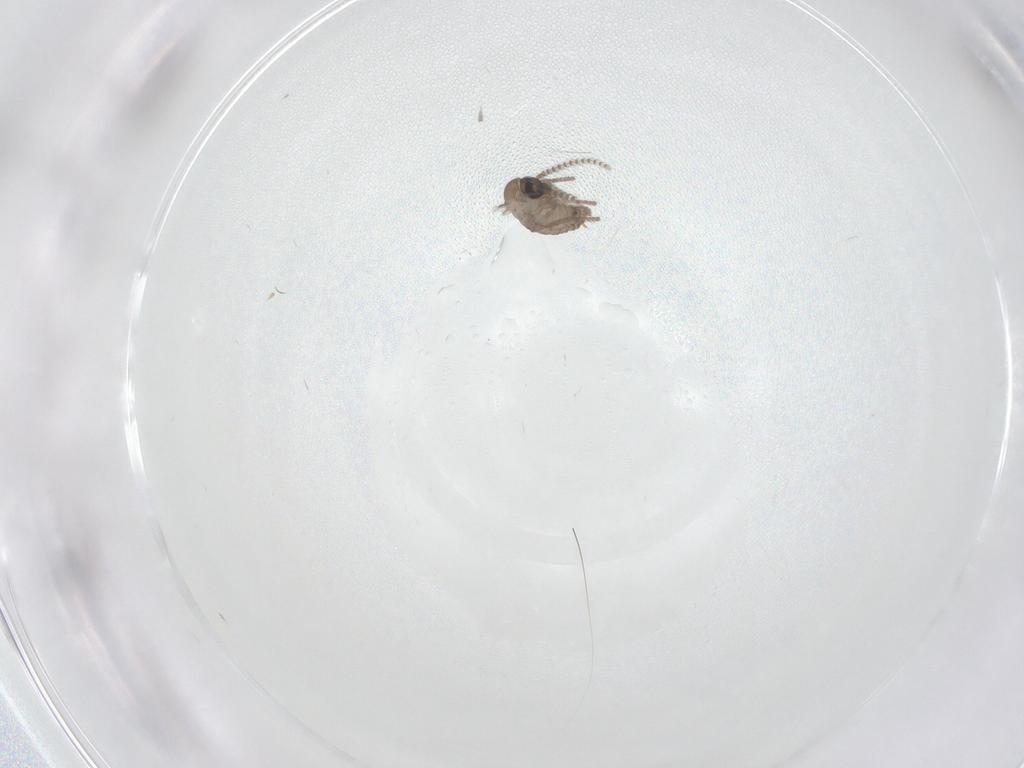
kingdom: Animalia
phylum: Arthropoda
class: Insecta
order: Diptera
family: Psychodidae
